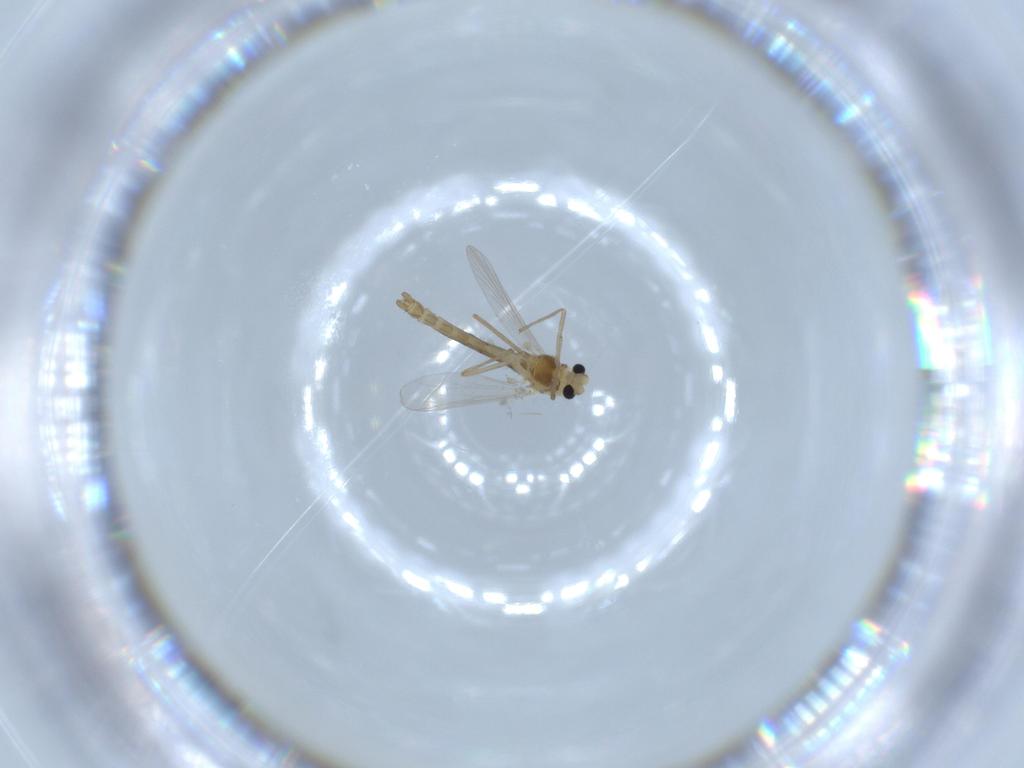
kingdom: Animalia
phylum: Arthropoda
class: Insecta
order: Diptera
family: Chironomidae
